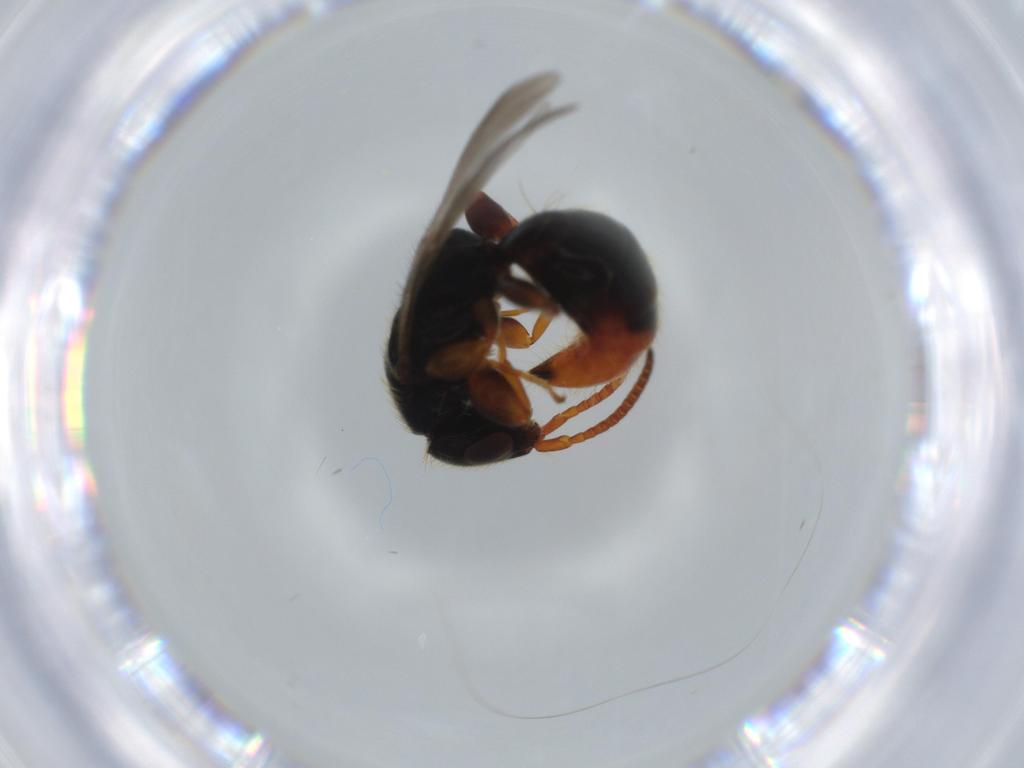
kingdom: Animalia
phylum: Arthropoda
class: Insecta
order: Hymenoptera
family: Bethylidae
